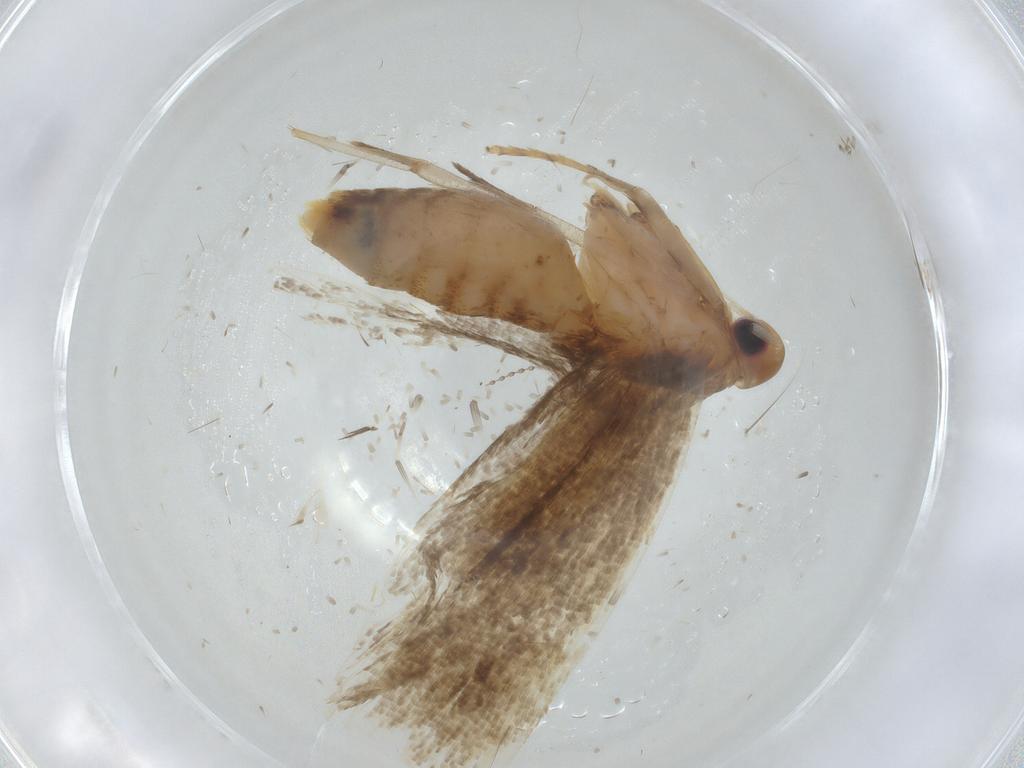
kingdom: Animalia
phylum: Arthropoda
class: Insecta
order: Lepidoptera
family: Lecithoceridae
